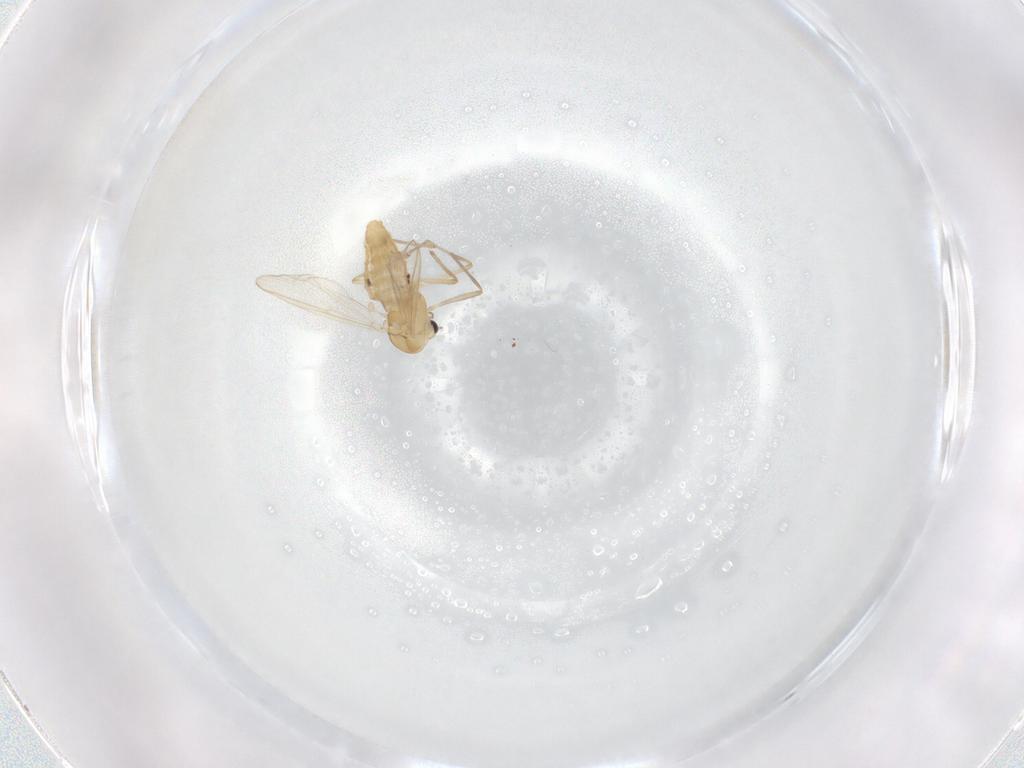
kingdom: Animalia
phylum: Arthropoda
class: Insecta
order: Diptera
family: Chironomidae
